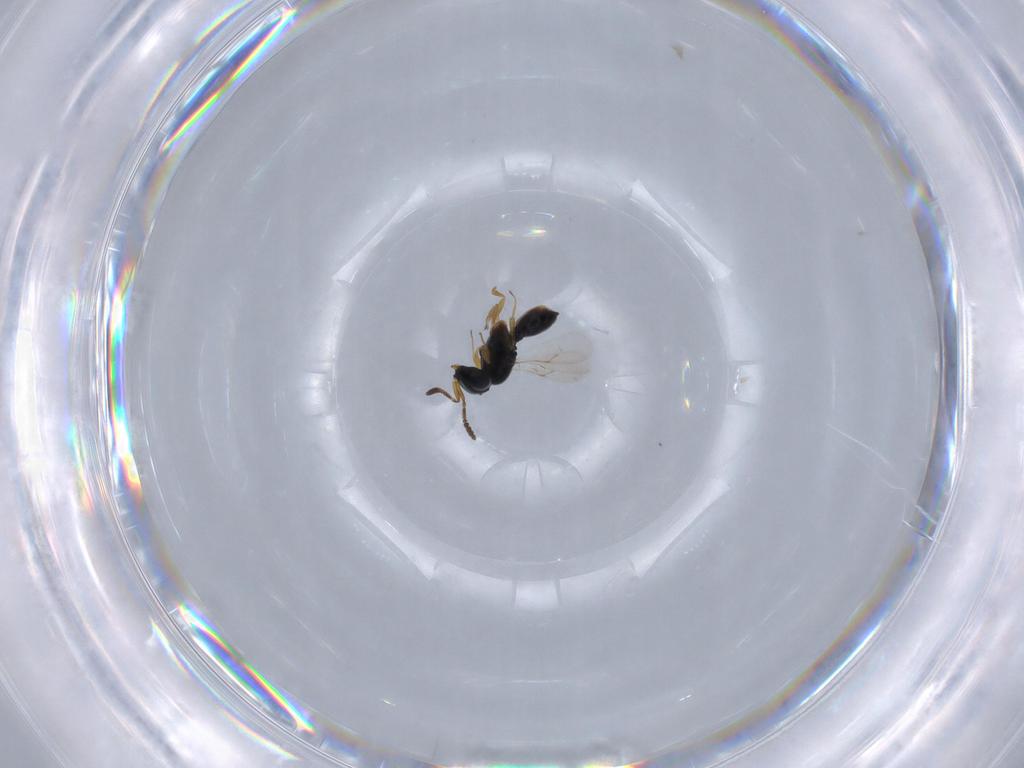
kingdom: Animalia
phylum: Arthropoda
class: Insecta
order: Hymenoptera
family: Scelionidae
